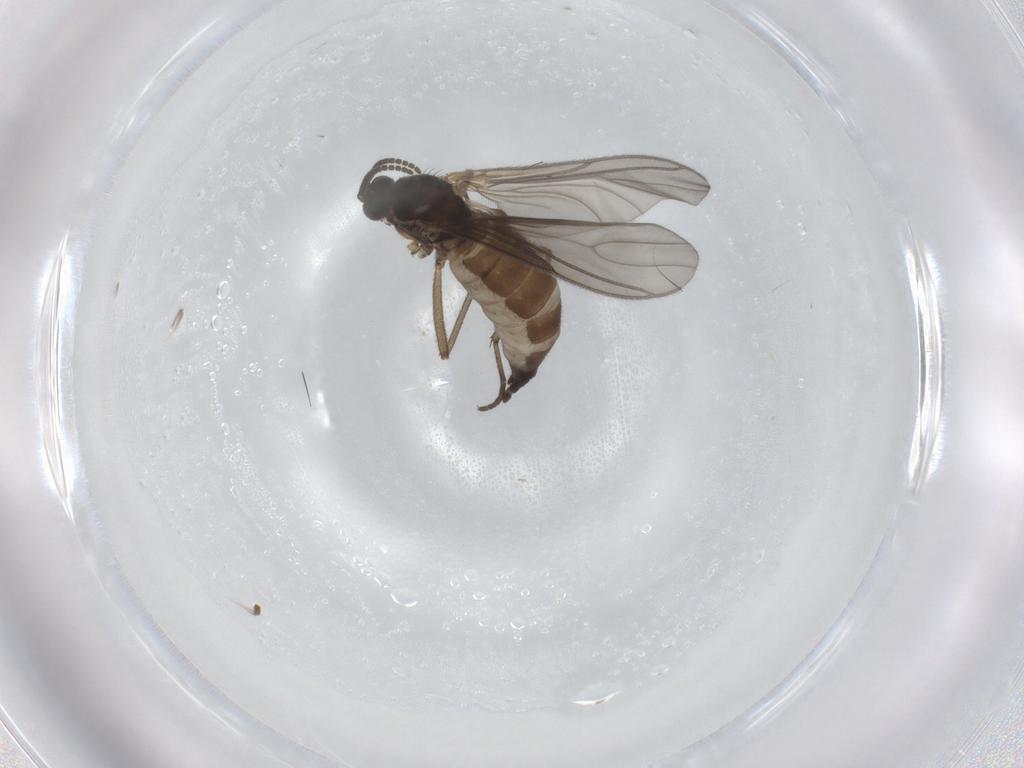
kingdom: Animalia
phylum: Arthropoda
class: Insecta
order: Diptera
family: Sciaridae
